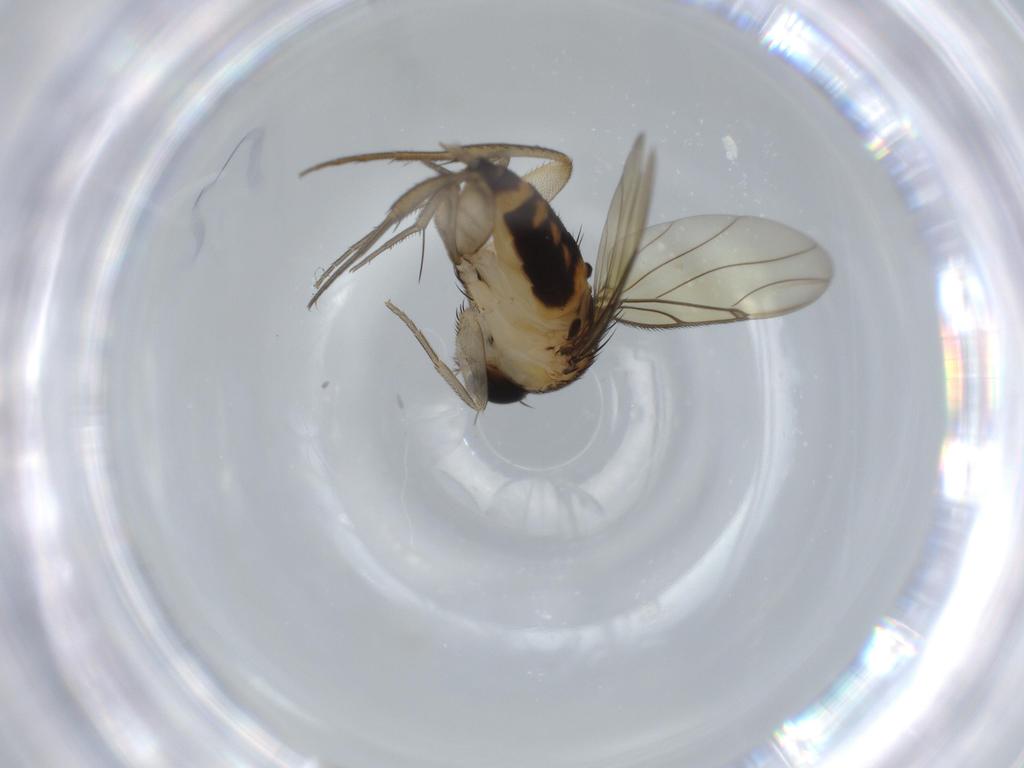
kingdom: Animalia
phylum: Arthropoda
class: Insecta
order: Diptera
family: Phoridae
